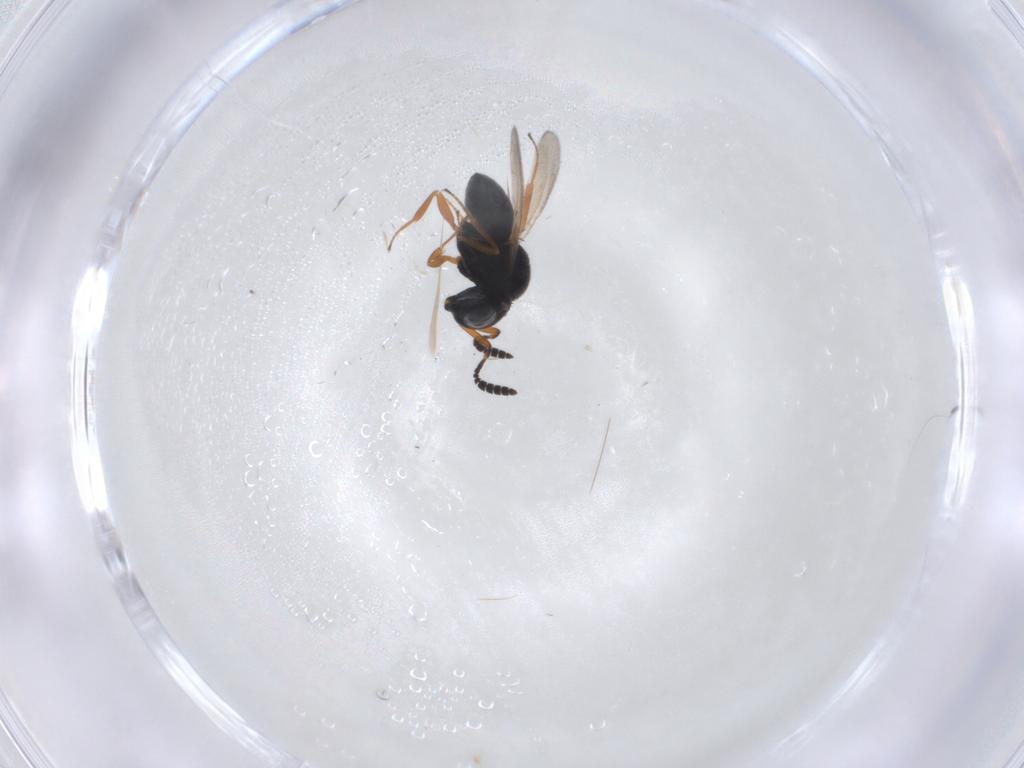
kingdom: Animalia
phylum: Arthropoda
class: Insecta
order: Hymenoptera
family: Scelionidae
